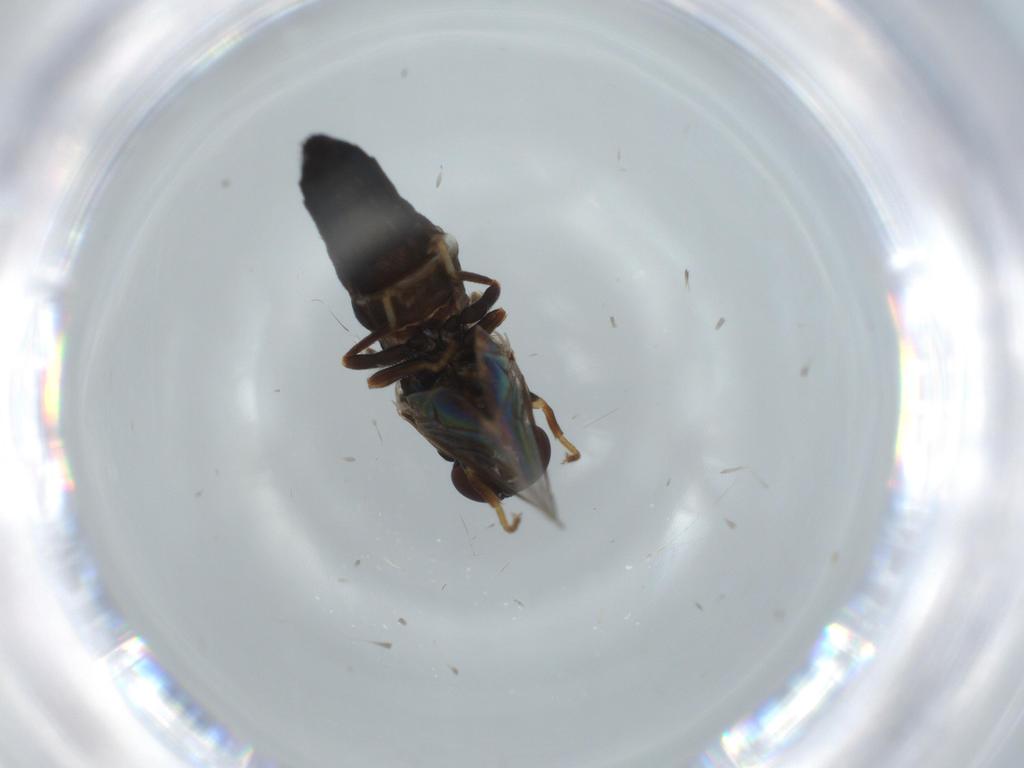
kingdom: Animalia
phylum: Arthropoda
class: Insecta
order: Diptera
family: Scenopinidae
